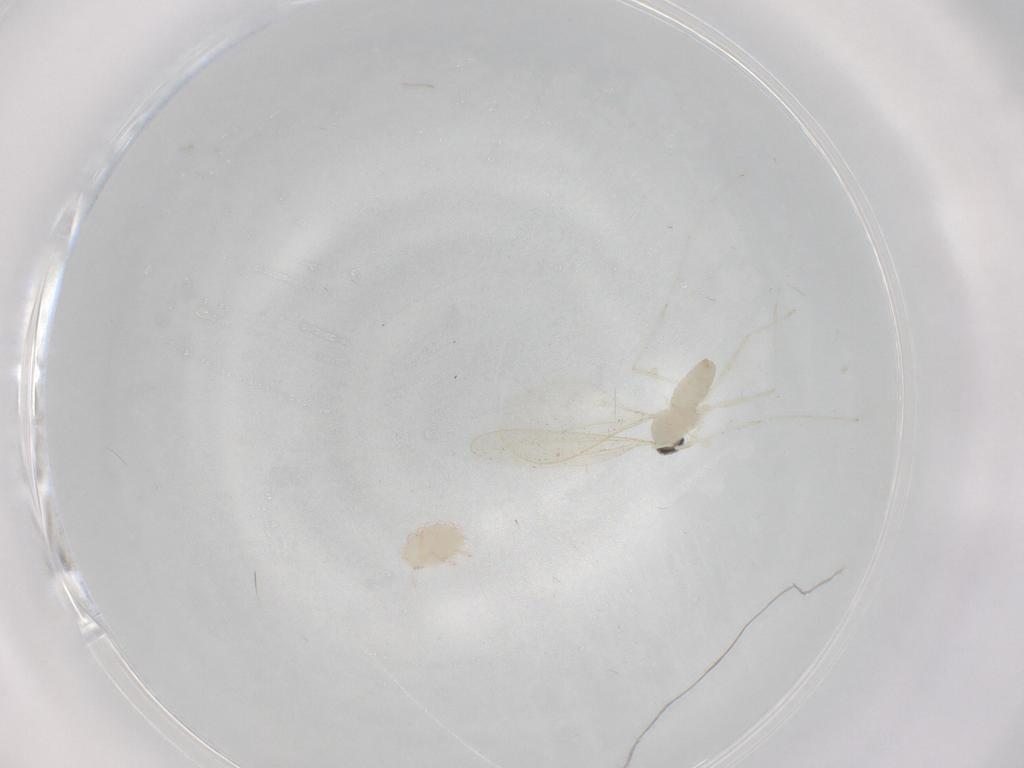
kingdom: Animalia
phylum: Arthropoda
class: Insecta
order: Diptera
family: Cecidomyiidae
